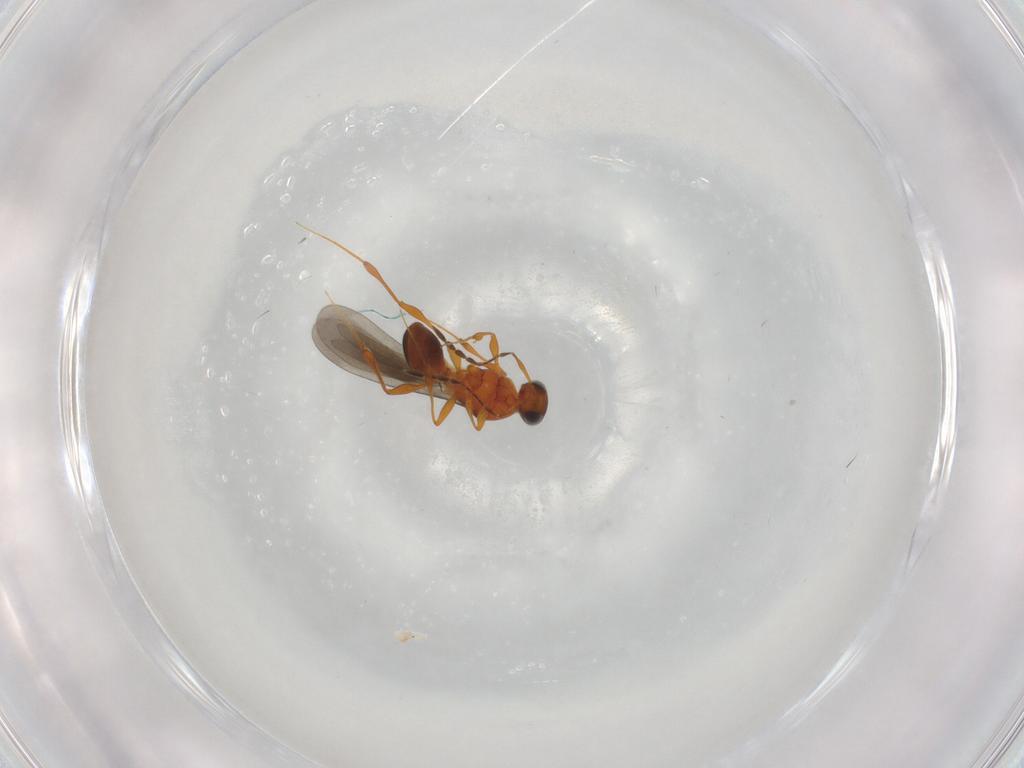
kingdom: Animalia
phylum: Arthropoda
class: Insecta
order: Hymenoptera
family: Platygastridae
